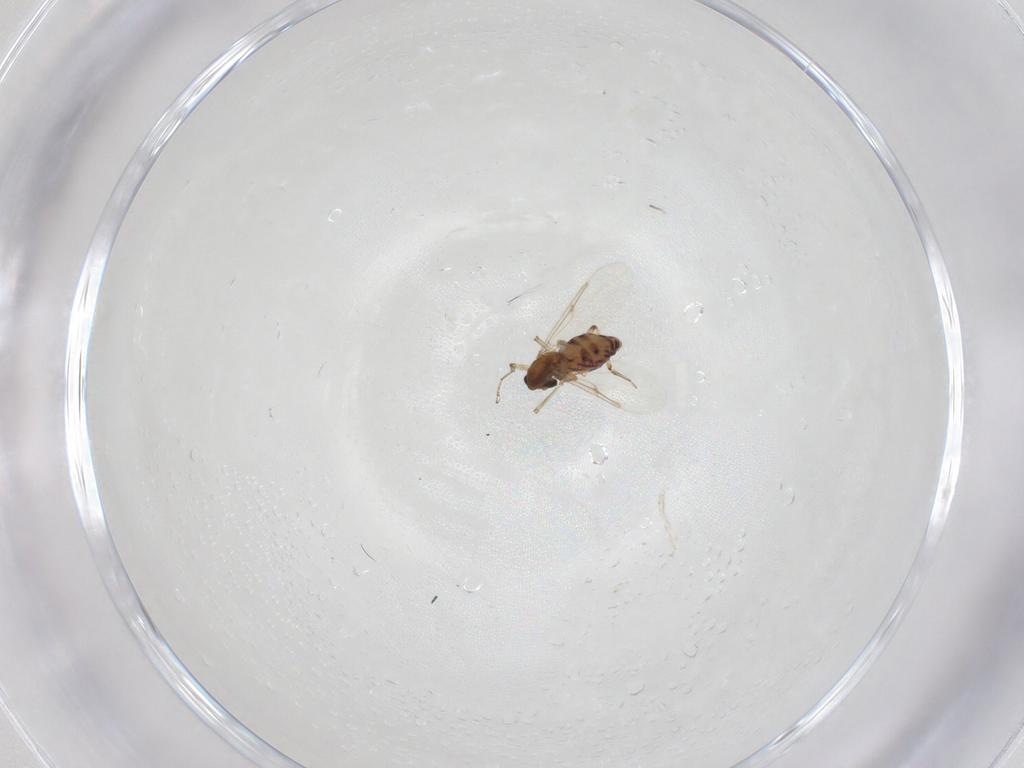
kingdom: Animalia
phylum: Arthropoda
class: Insecta
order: Diptera
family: Ceratopogonidae
